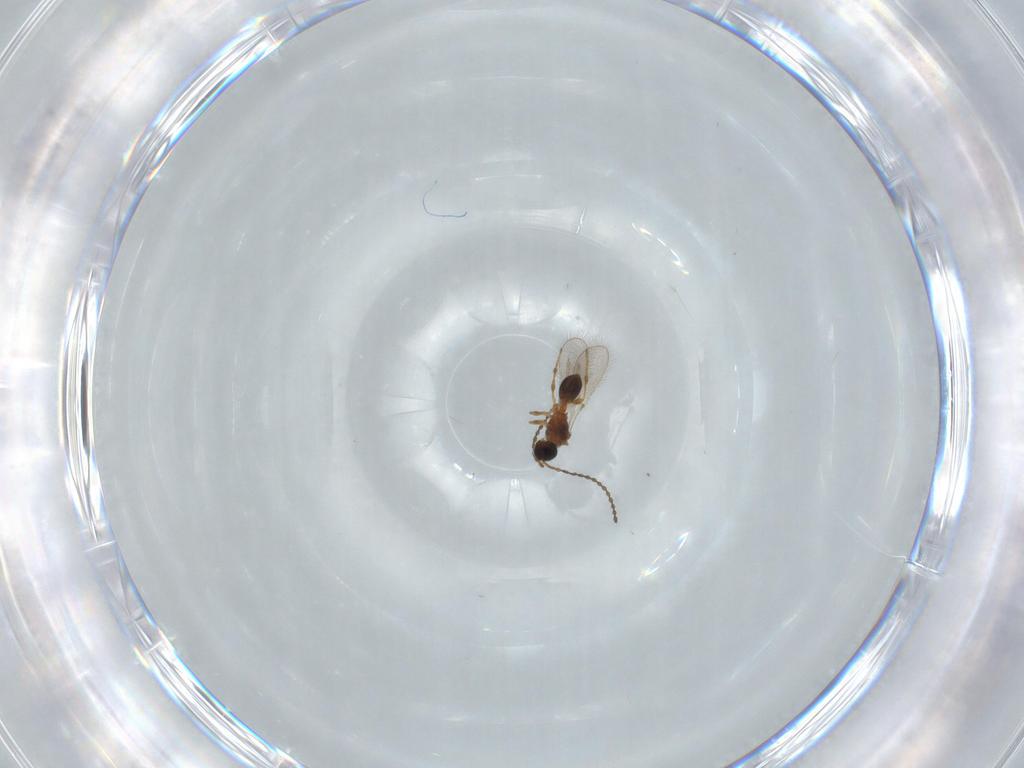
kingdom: Animalia
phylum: Arthropoda
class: Insecta
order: Hymenoptera
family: Diapriidae
